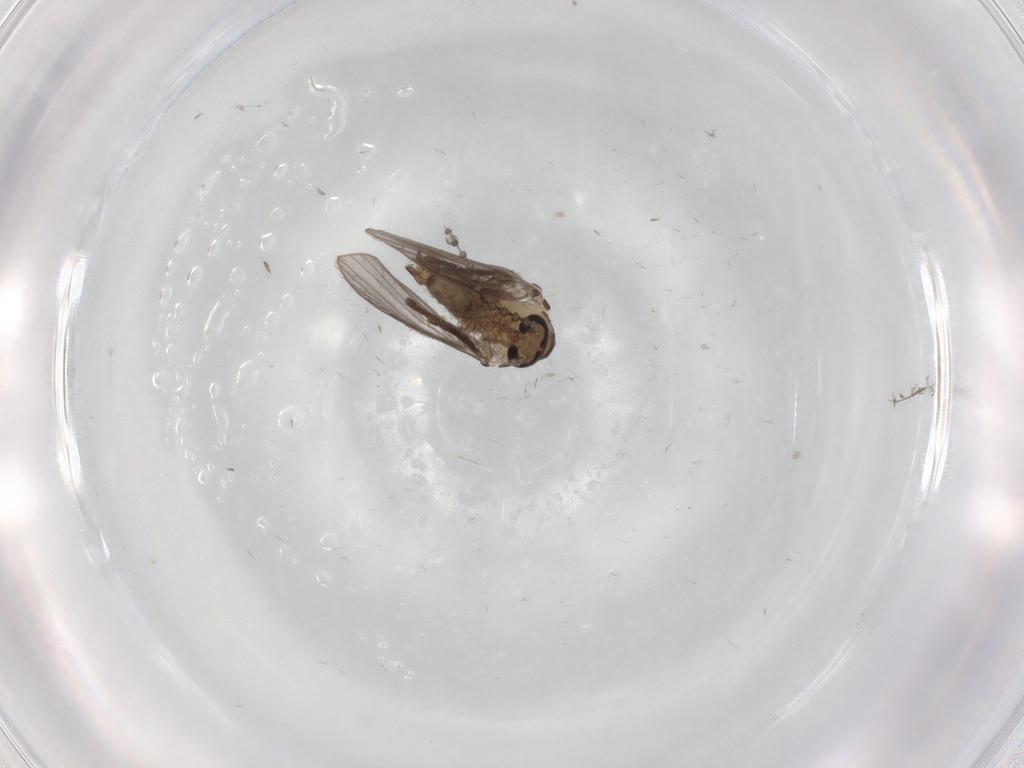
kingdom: Animalia
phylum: Arthropoda
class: Insecta
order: Diptera
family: Psychodidae
